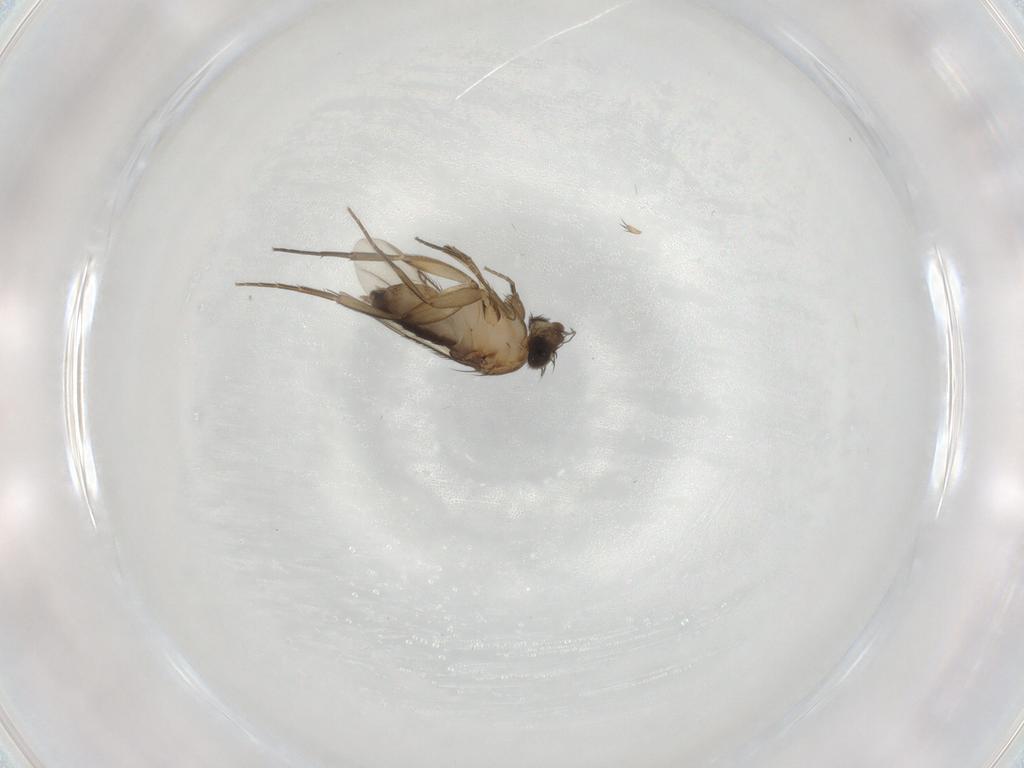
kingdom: Animalia
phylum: Arthropoda
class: Insecta
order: Diptera
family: Phoridae
